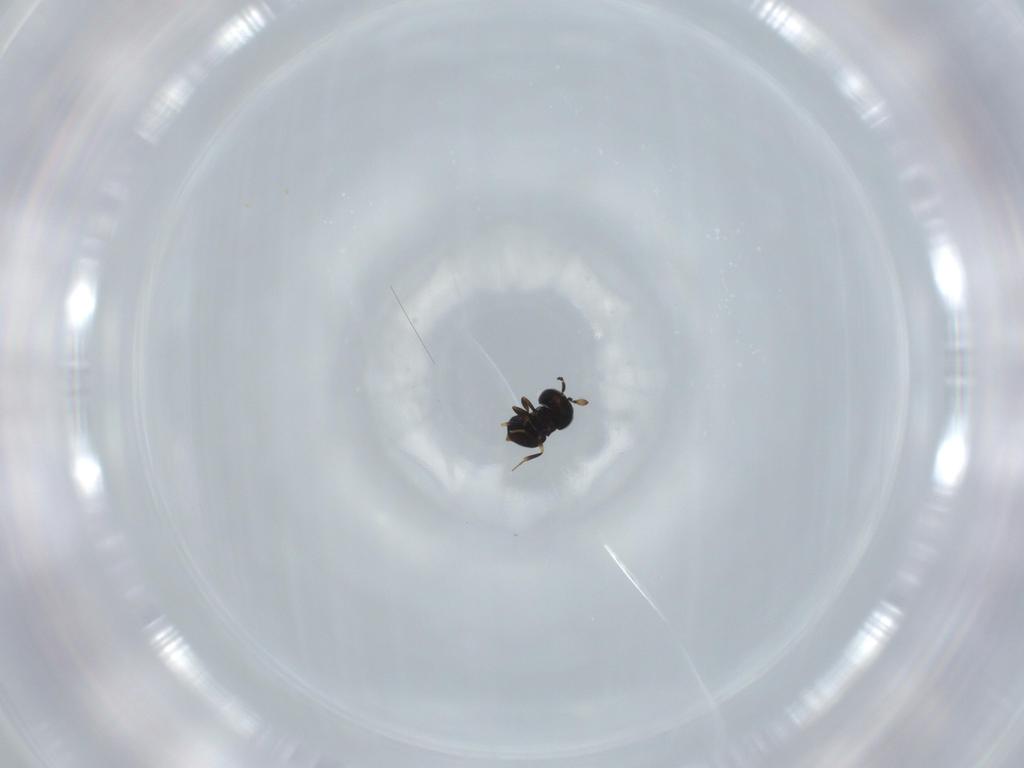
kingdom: Animalia
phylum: Arthropoda
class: Insecta
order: Hymenoptera
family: Scelionidae
